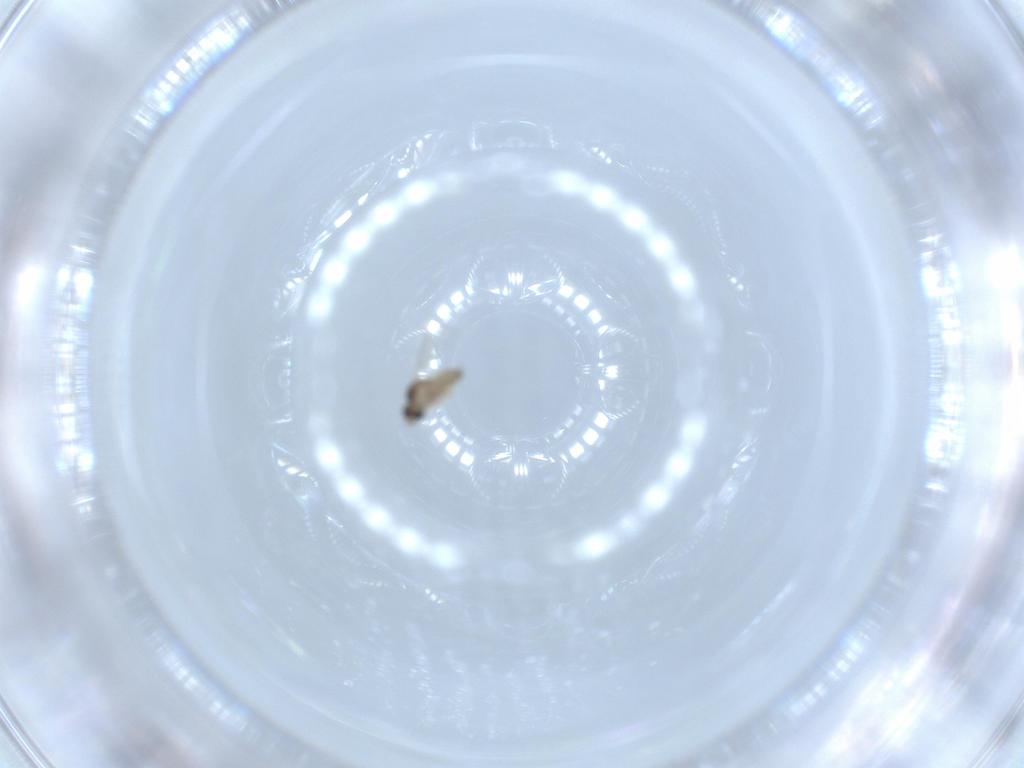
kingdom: Animalia
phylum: Arthropoda
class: Insecta
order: Diptera
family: Cecidomyiidae
